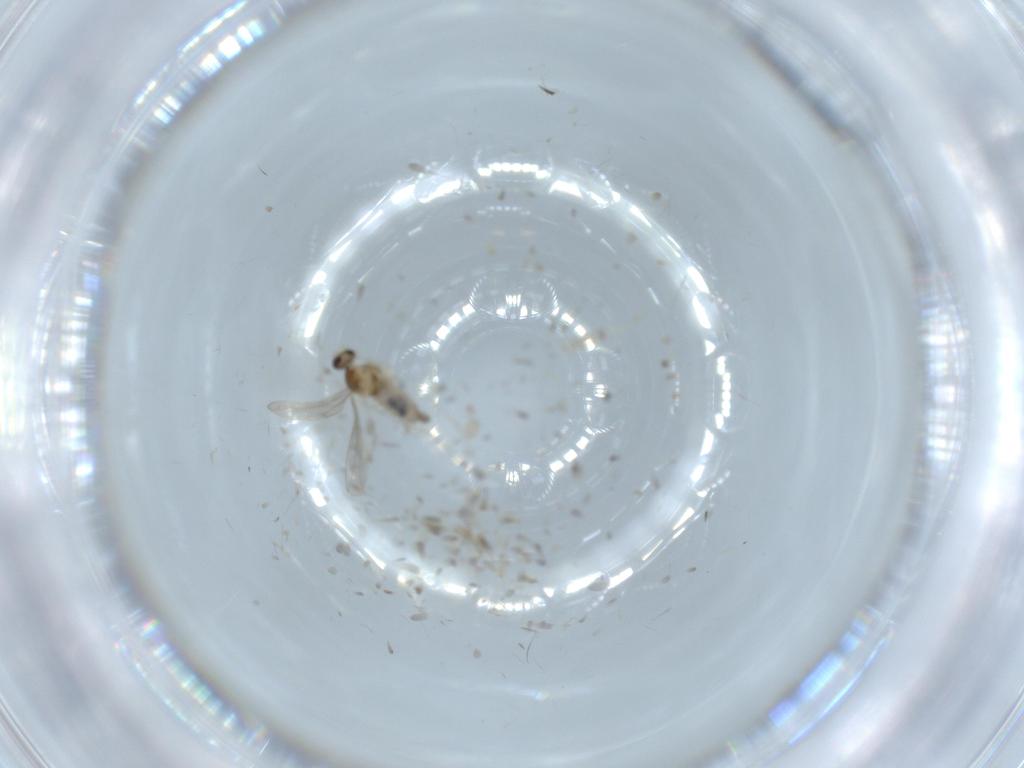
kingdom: Animalia
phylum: Arthropoda
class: Insecta
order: Diptera
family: Cecidomyiidae
